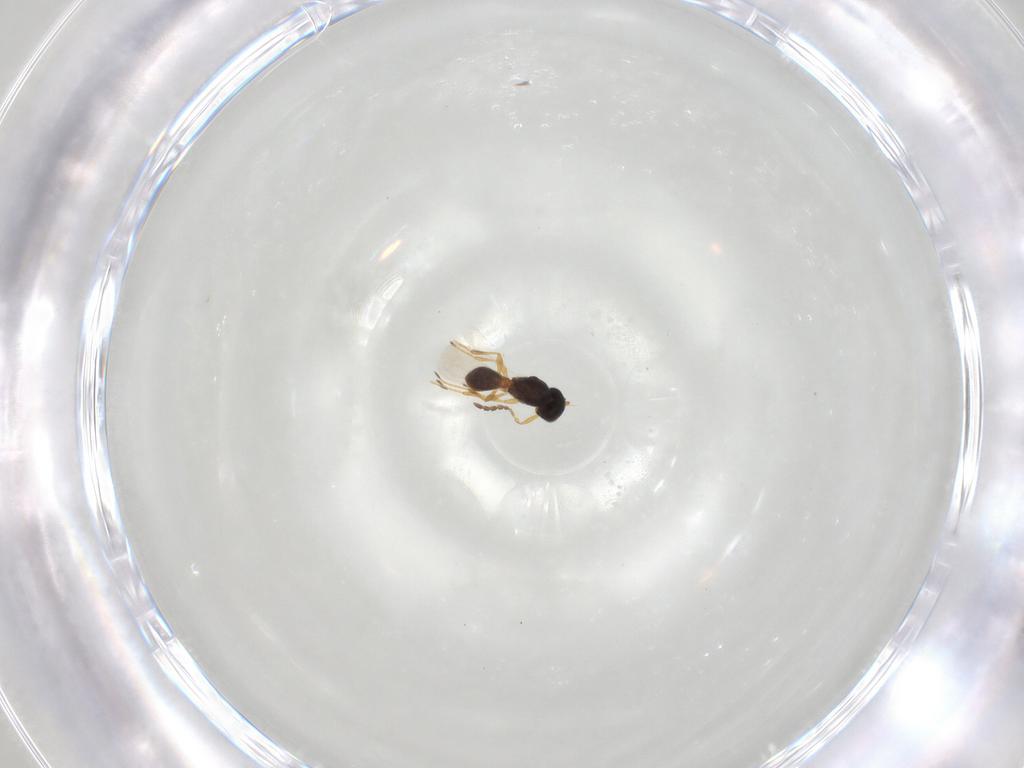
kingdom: Animalia
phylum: Arthropoda
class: Insecta
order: Hymenoptera
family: Platygastridae
